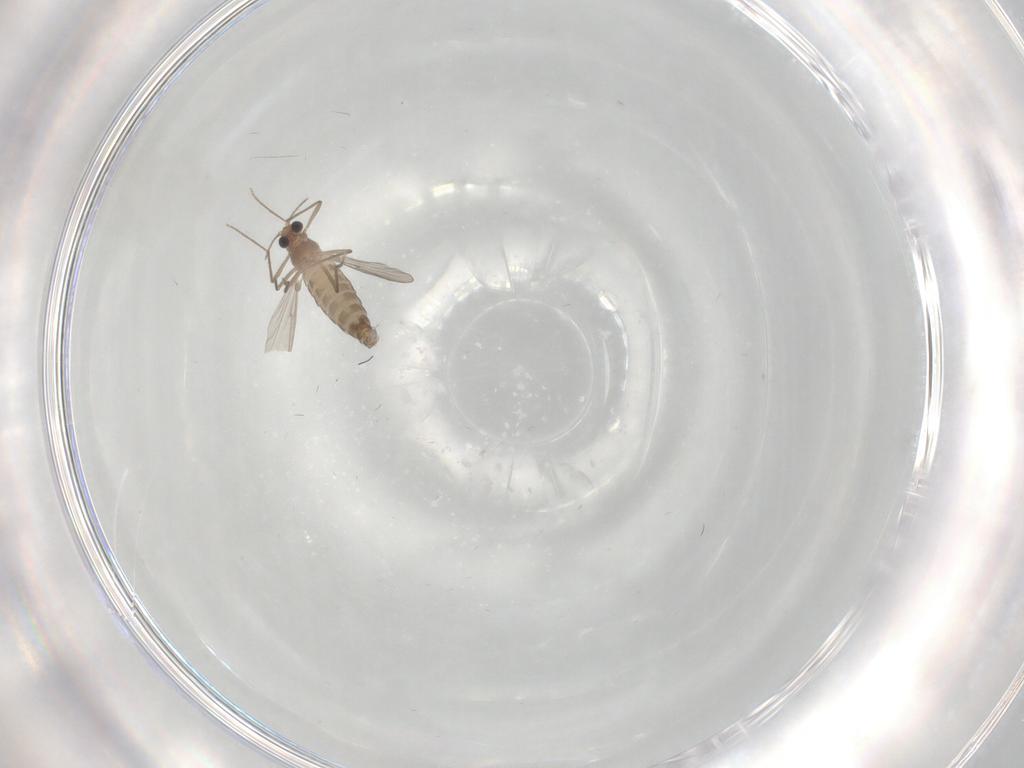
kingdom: Animalia
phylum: Arthropoda
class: Insecta
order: Diptera
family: Chironomidae
